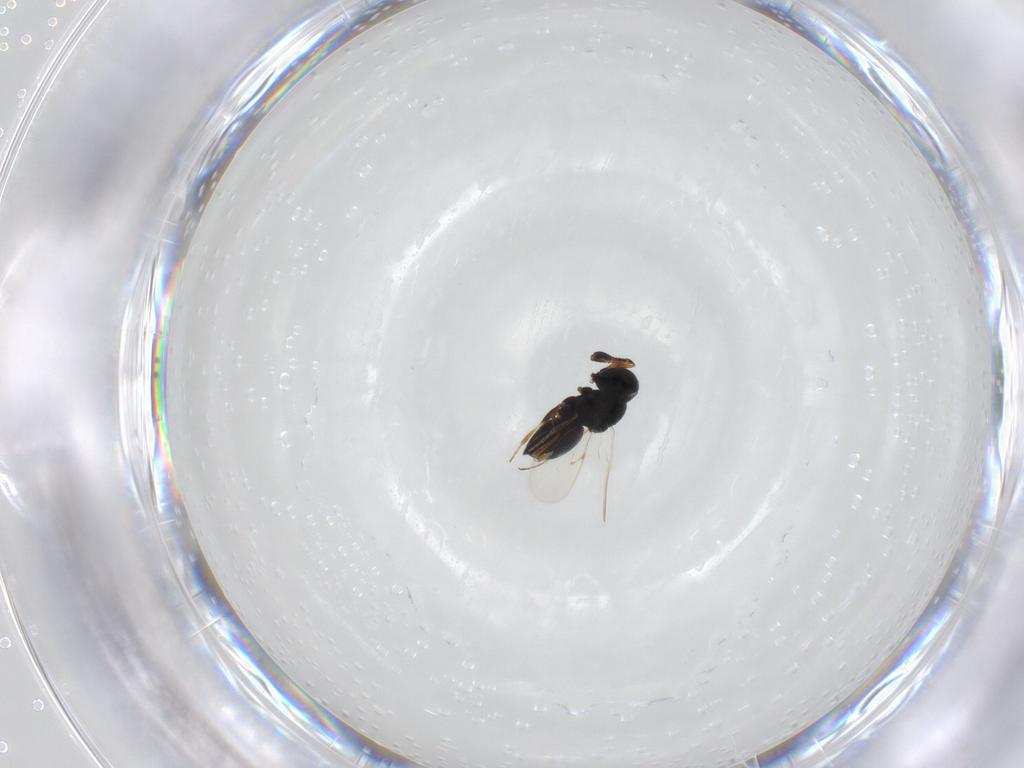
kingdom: Animalia
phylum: Arthropoda
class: Insecta
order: Hymenoptera
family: Scelionidae
